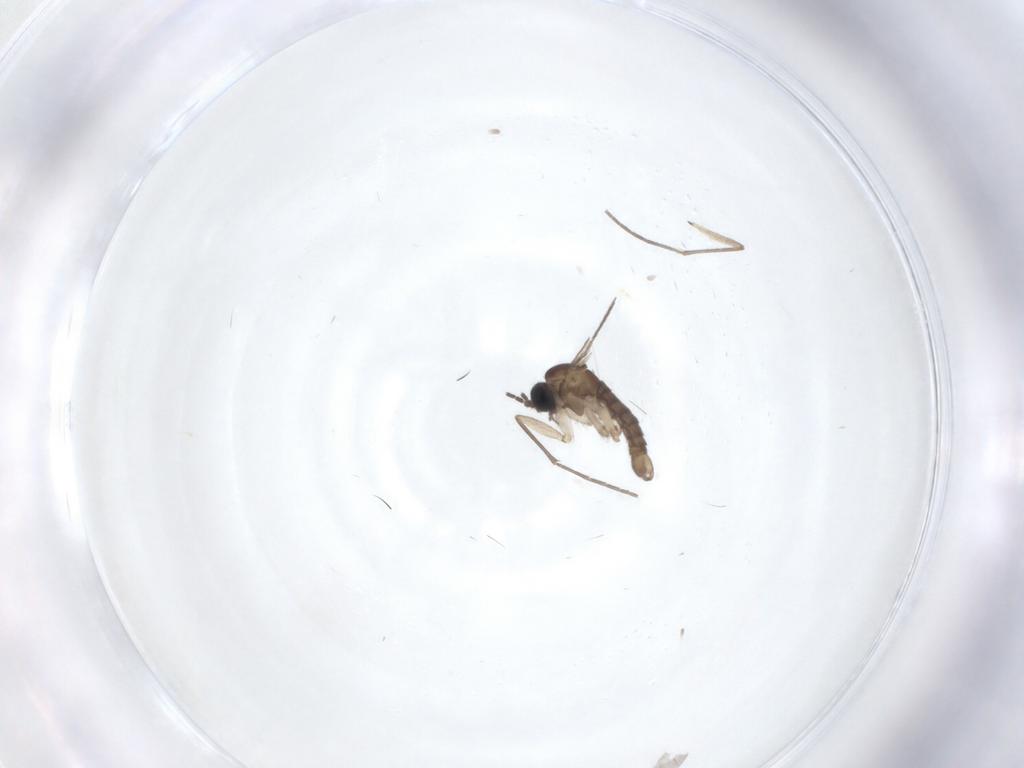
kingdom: Animalia
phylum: Arthropoda
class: Insecta
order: Diptera
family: Sciaridae
